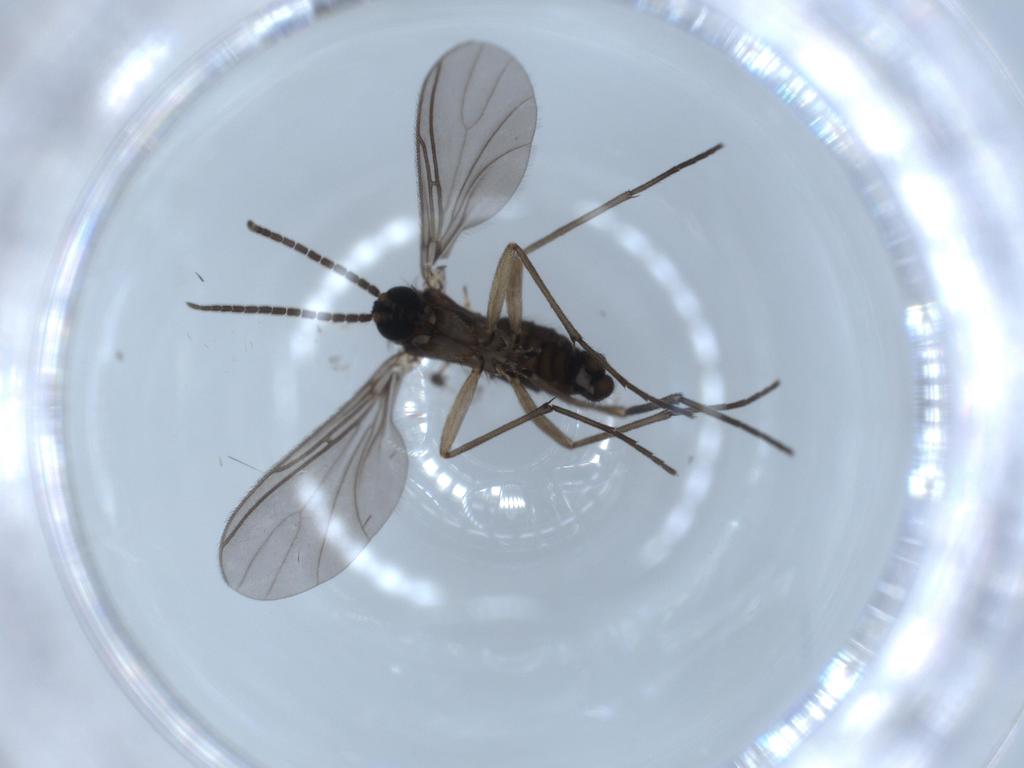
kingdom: Animalia
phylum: Arthropoda
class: Insecta
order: Diptera
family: Sciaridae
